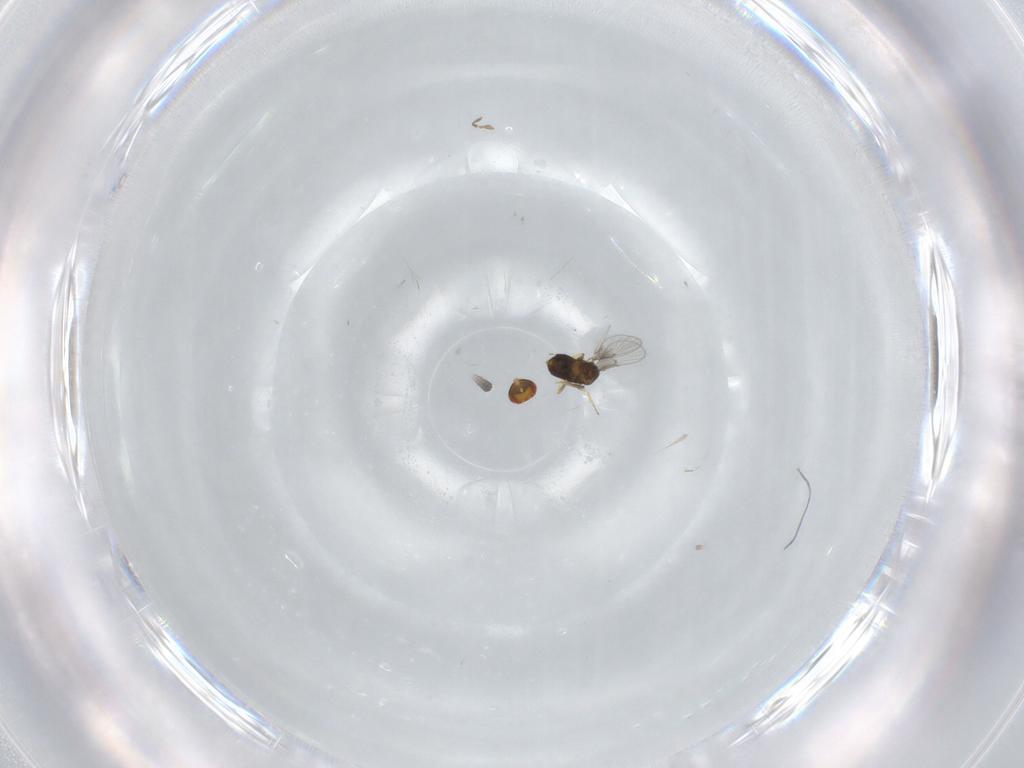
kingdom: Animalia
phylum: Arthropoda
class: Insecta
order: Hymenoptera
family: Trichogrammatidae
